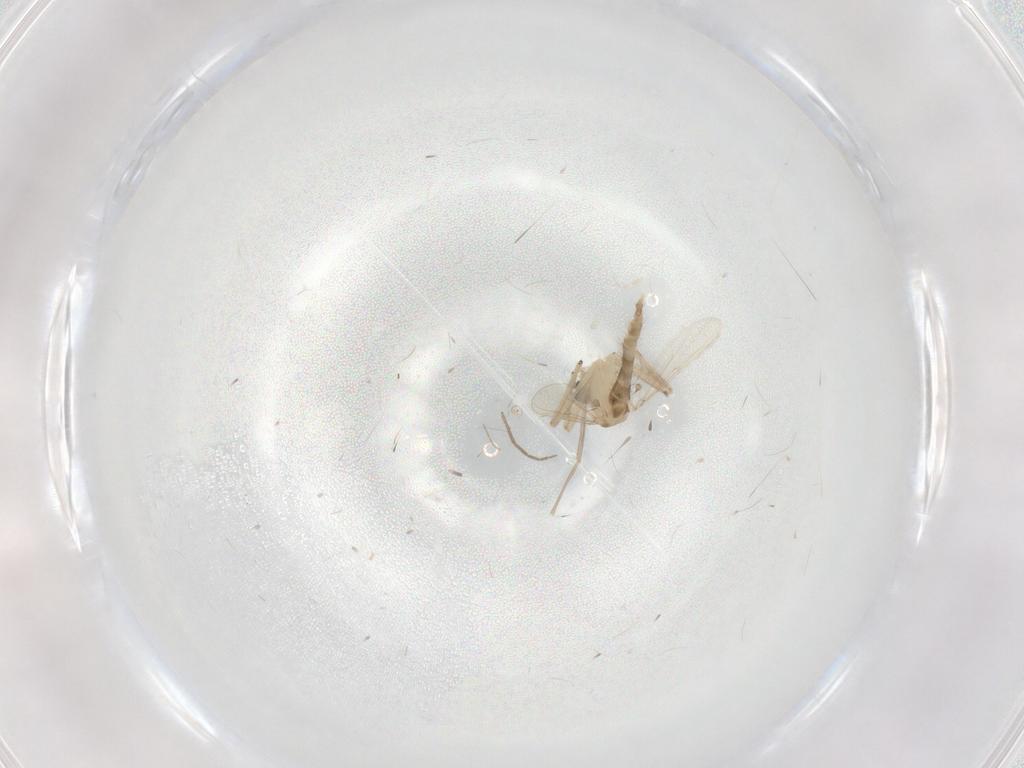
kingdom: Animalia
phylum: Arthropoda
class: Insecta
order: Diptera
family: Chironomidae
